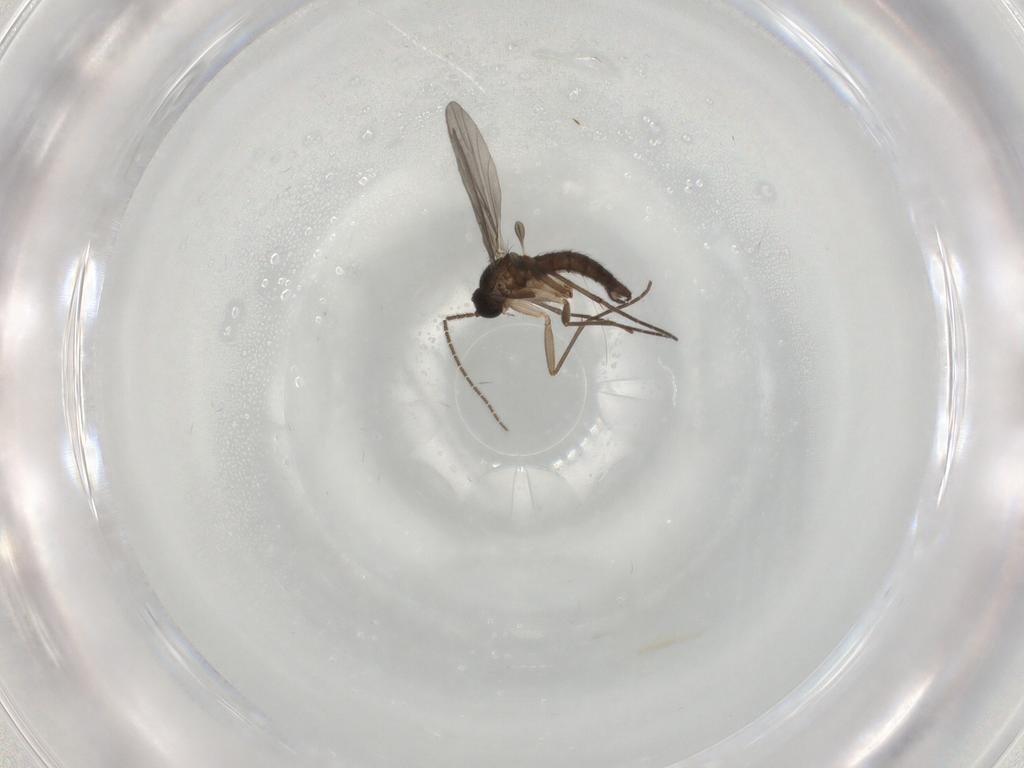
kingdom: Animalia
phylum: Arthropoda
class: Insecta
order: Diptera
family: Sciaridae
